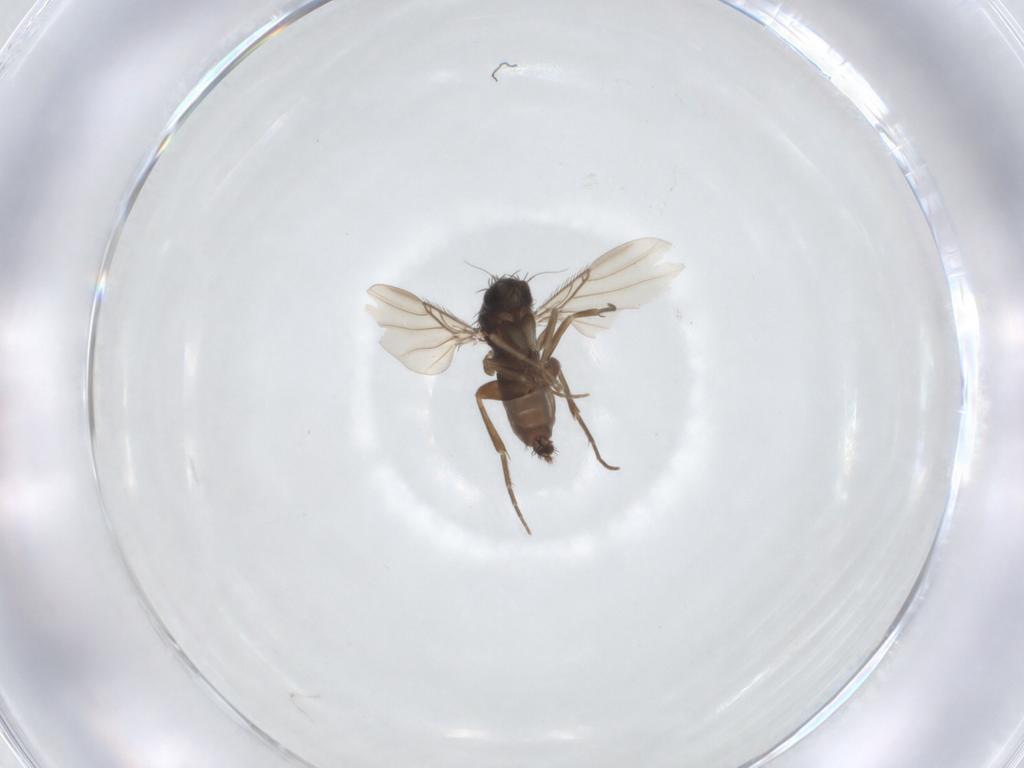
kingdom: Animalia
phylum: Arthropoda
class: Insecta
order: Diptera
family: Phoridae
